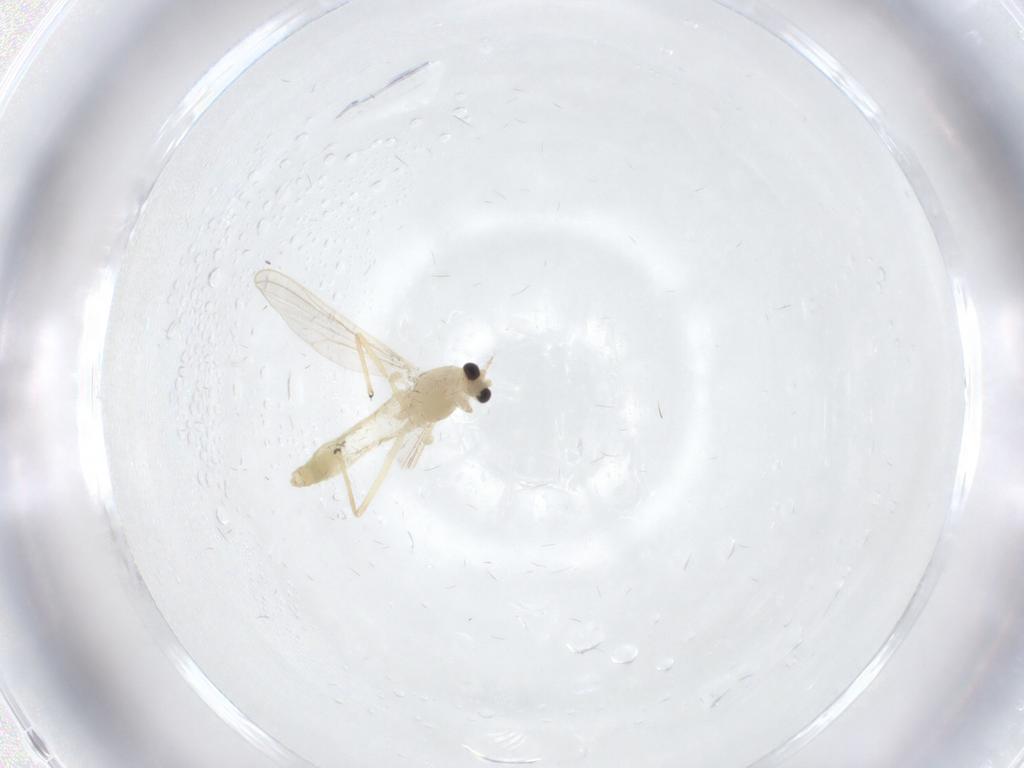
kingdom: Animalia
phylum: Arthropoda
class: Insecta
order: Diptera
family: Chironomidae
